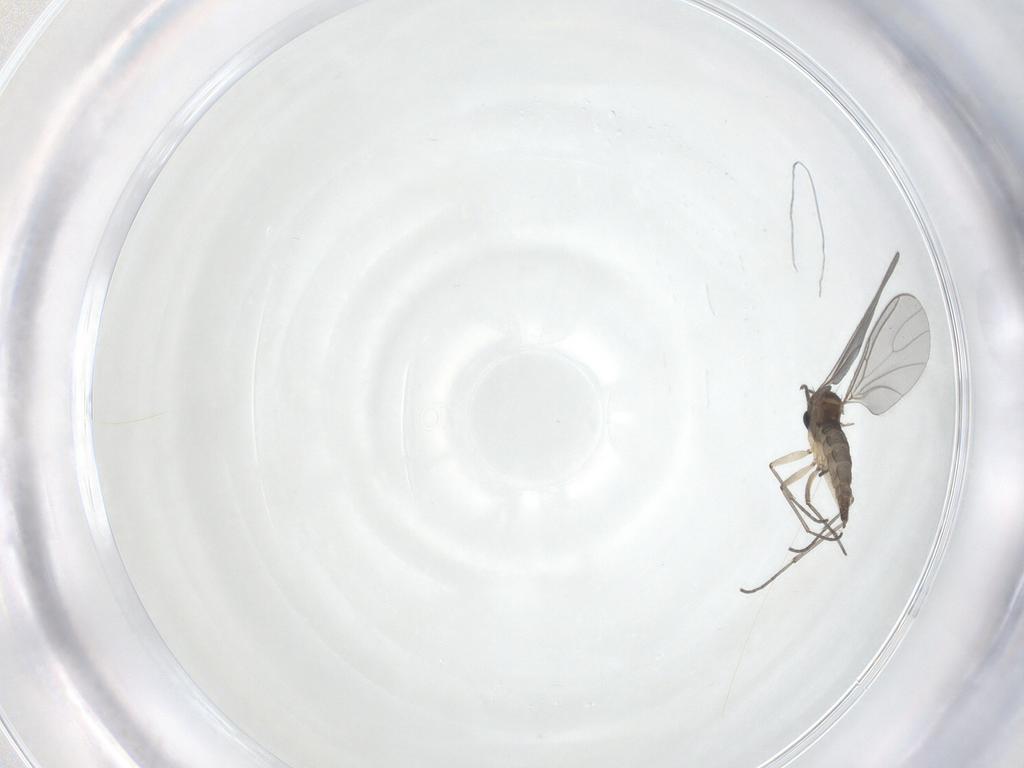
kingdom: Animalia
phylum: Arthropoda
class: Insecta
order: Diptera
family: Sciaridae
